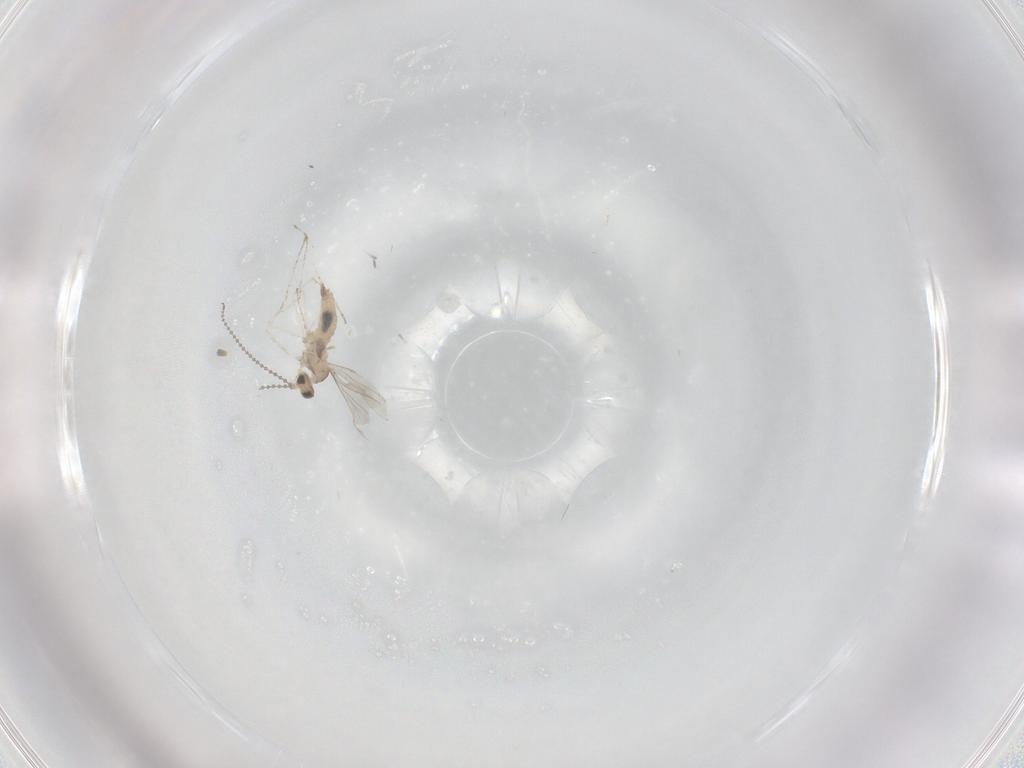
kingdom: Animalia
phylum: Arthropoda
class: Insecta
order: Diptera
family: Cecidomyiidae
